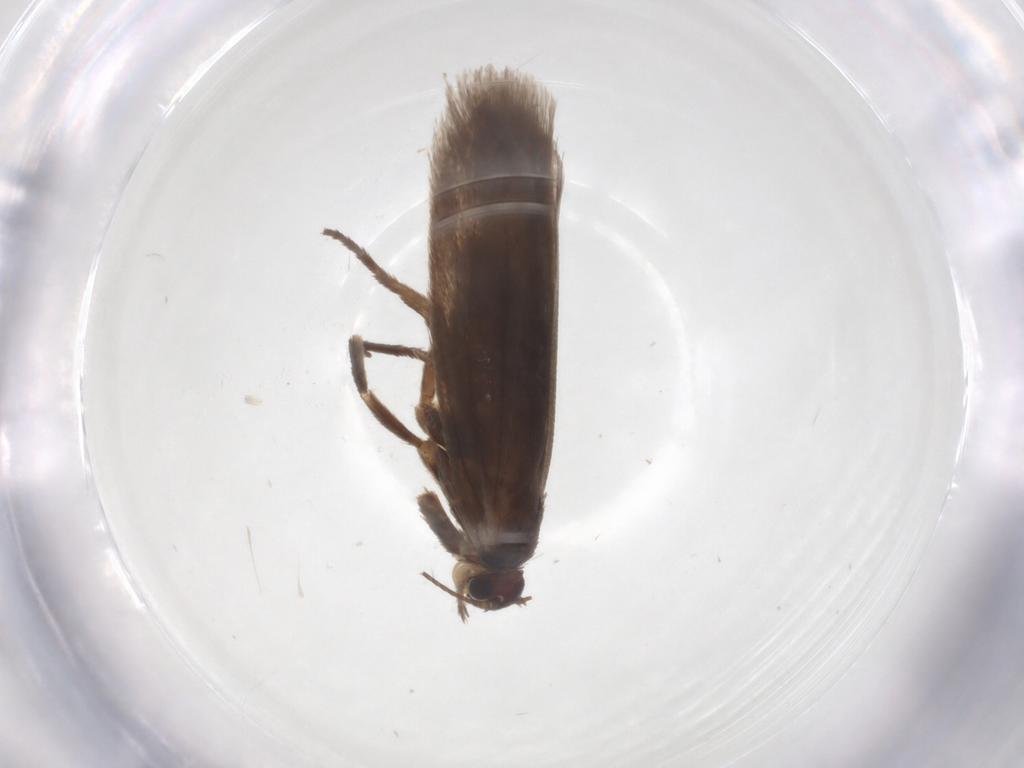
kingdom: Animalia
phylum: Arthropoda
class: Insecta
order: Lepidoptera
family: Limacodidae
